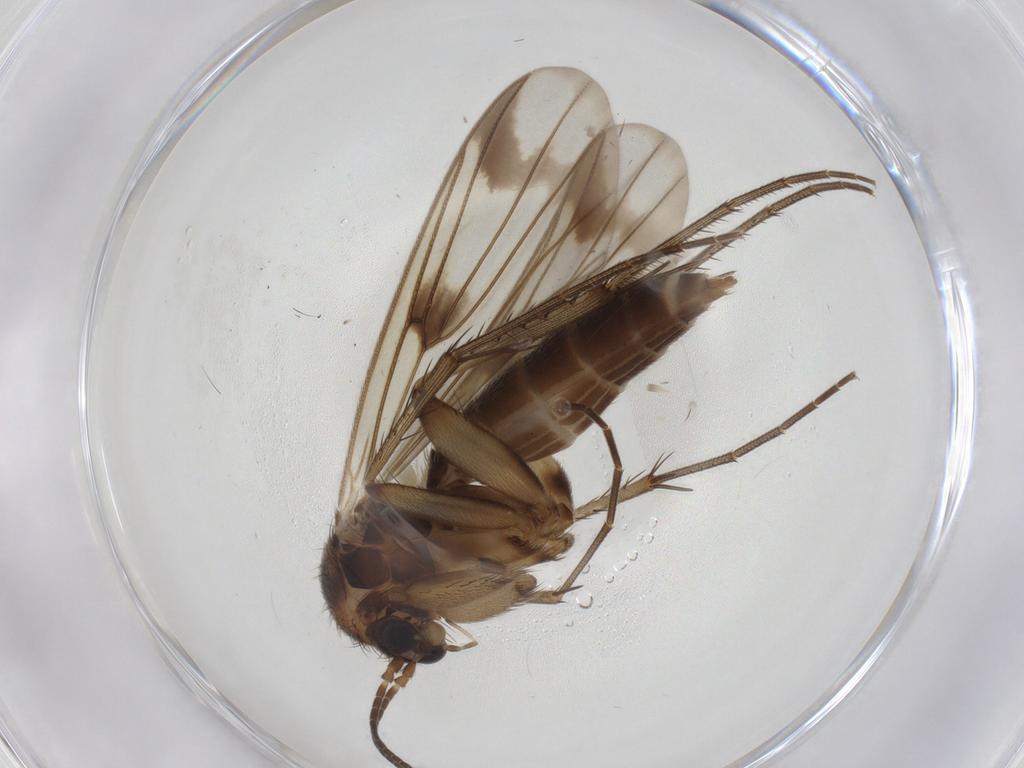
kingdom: Animalia
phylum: Arthropoda
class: Insecta
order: Diptera
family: Mycetophilidae
